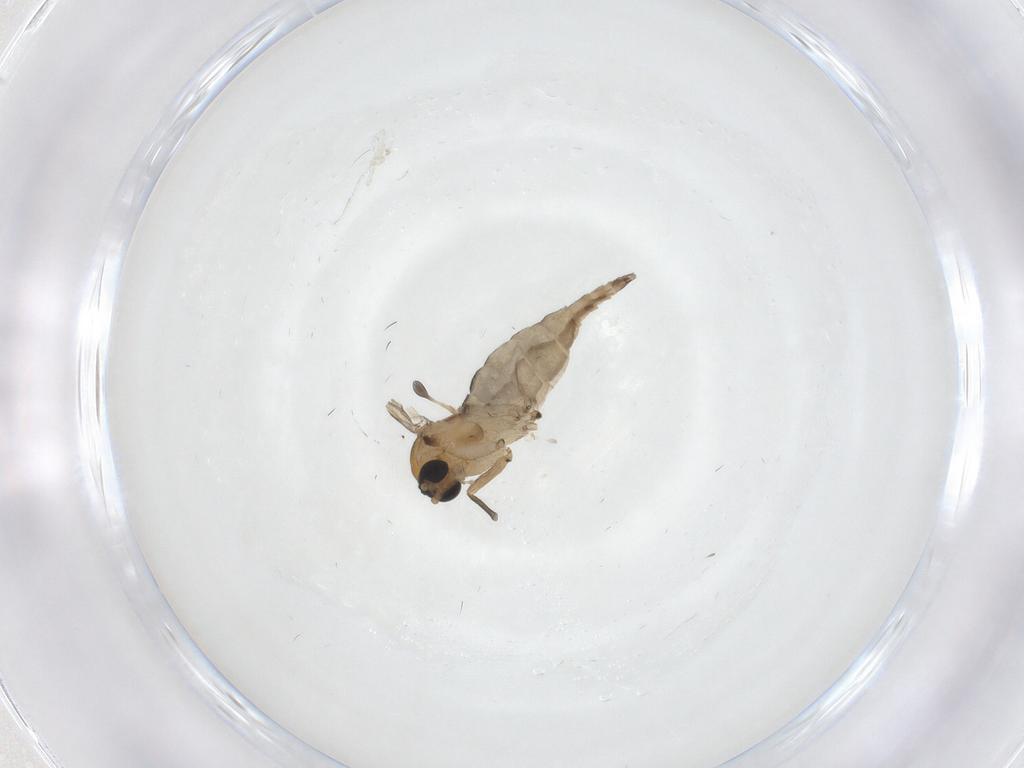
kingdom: Animalia
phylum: Arthropoda
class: Insecta
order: Diptera
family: Sciaridae
